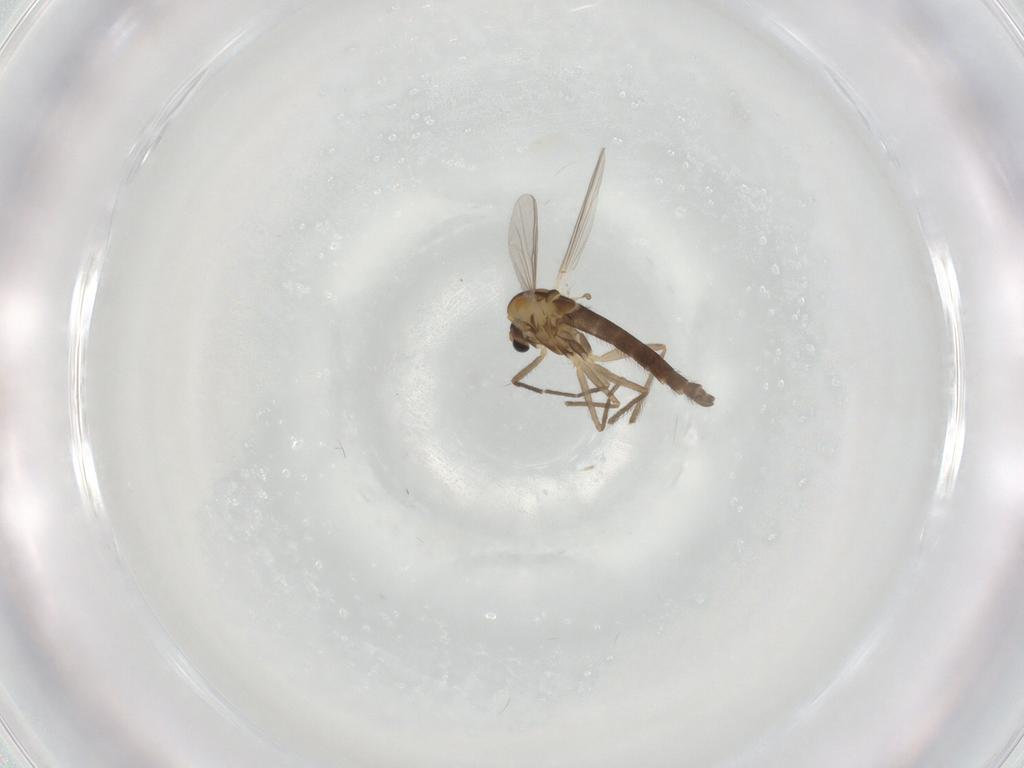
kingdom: Animalia
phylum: Arthropoda
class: Insecta
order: Diptera
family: Chironomidae
